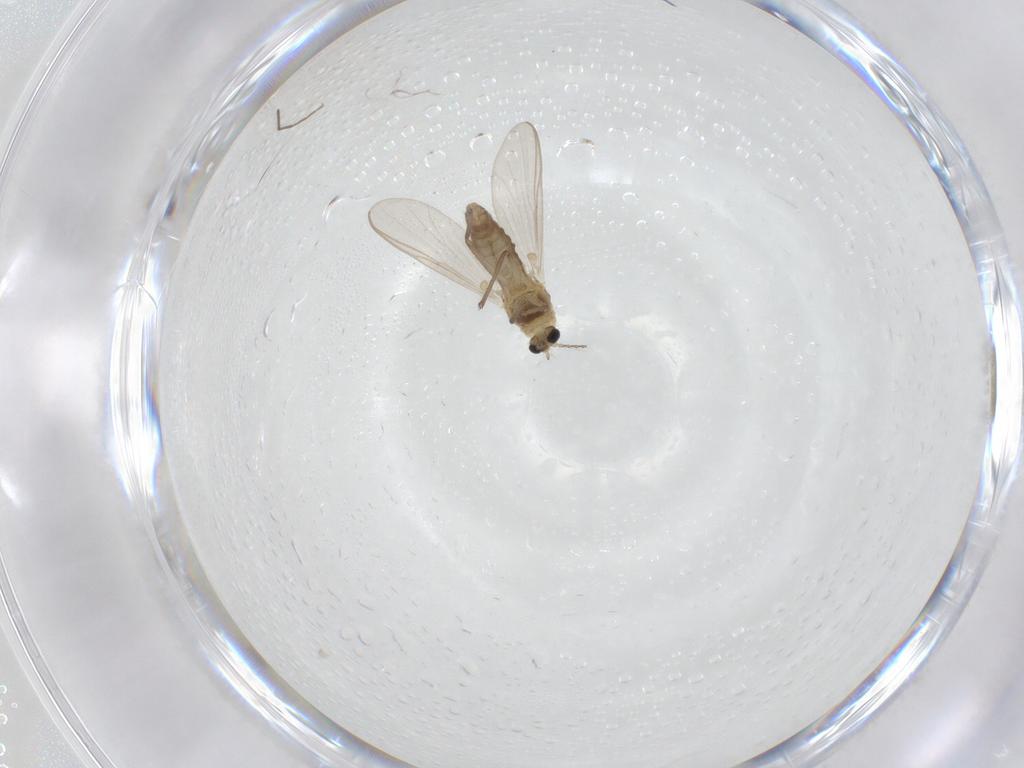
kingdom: Animalia
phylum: Arthropoda
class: Insecta
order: Diptera
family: Chironomidae
